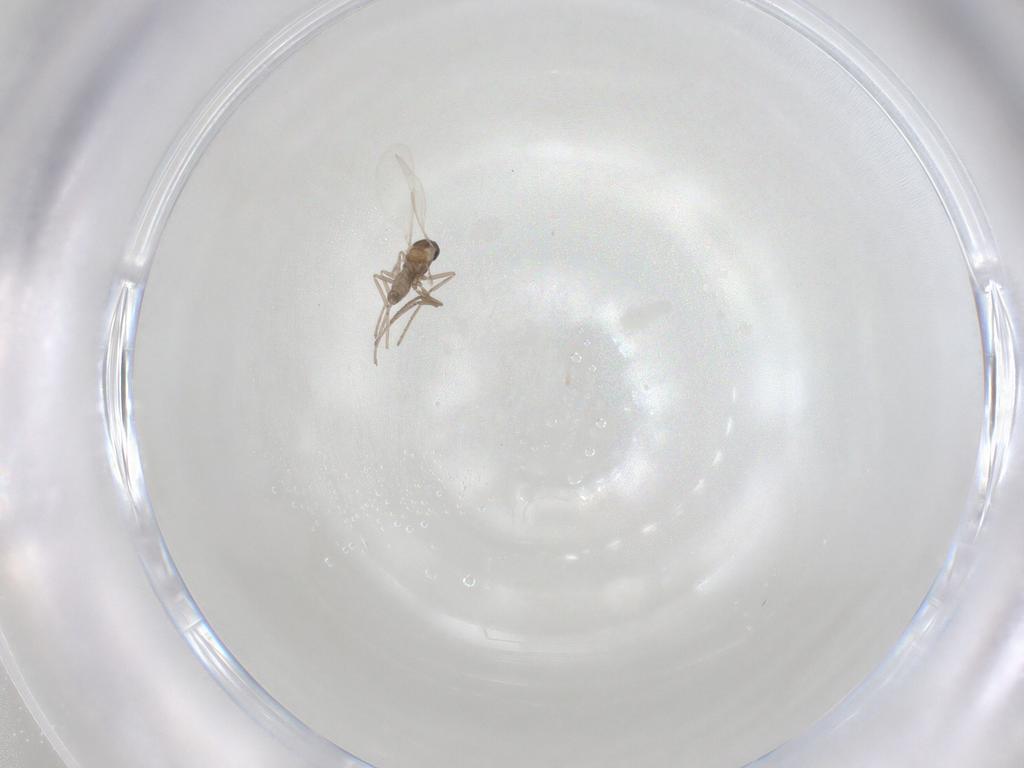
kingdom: Animalia
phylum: Arthropoda
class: Insecta
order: Diptera
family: Cecidomyiidae
